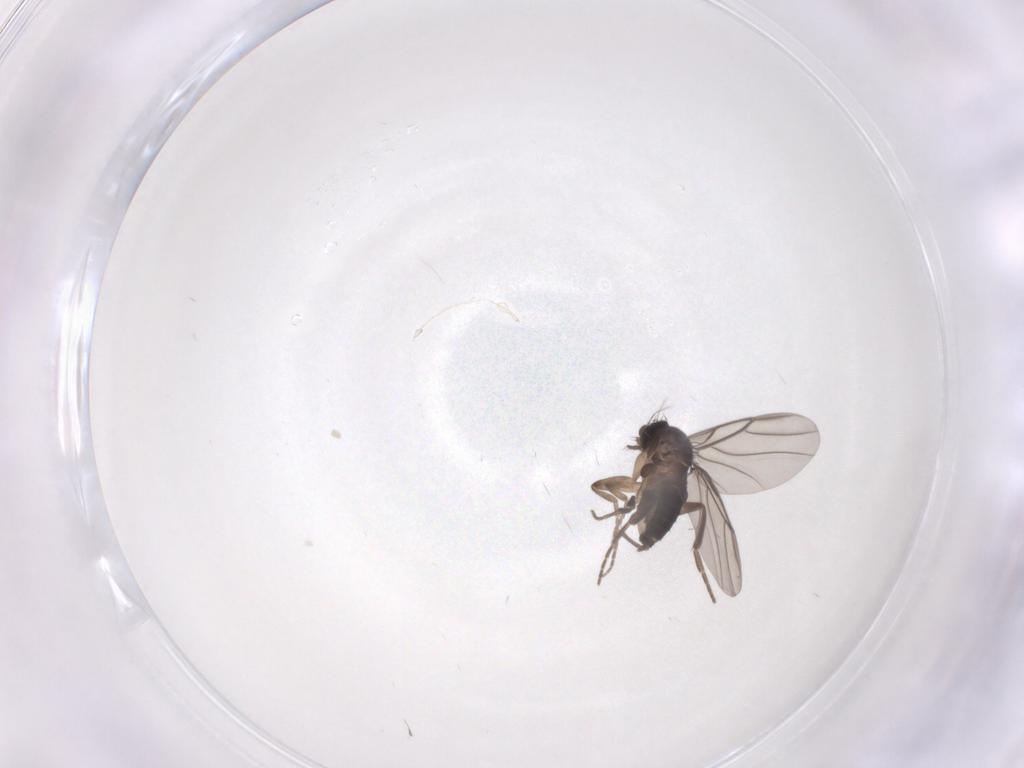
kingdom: Animalia
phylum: Arthropoda
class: Insecta
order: Diptera
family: Phoridae
